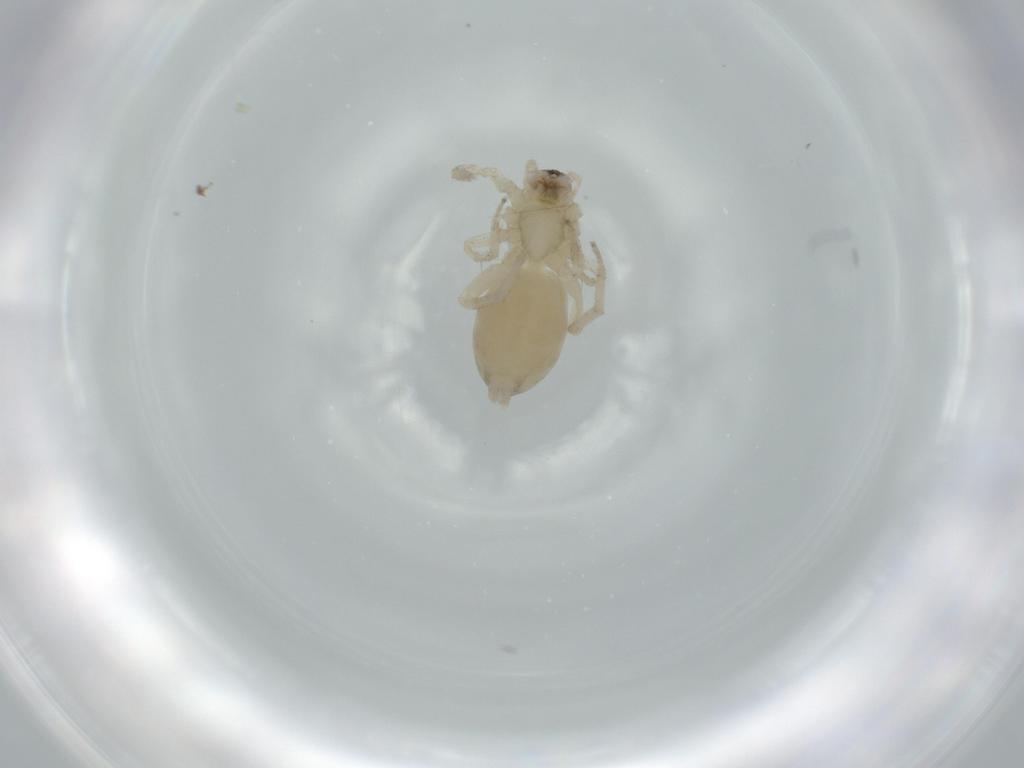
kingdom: Animalia
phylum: Arthropoda
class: Arachnida
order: Araneae
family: Amaurobiidae
